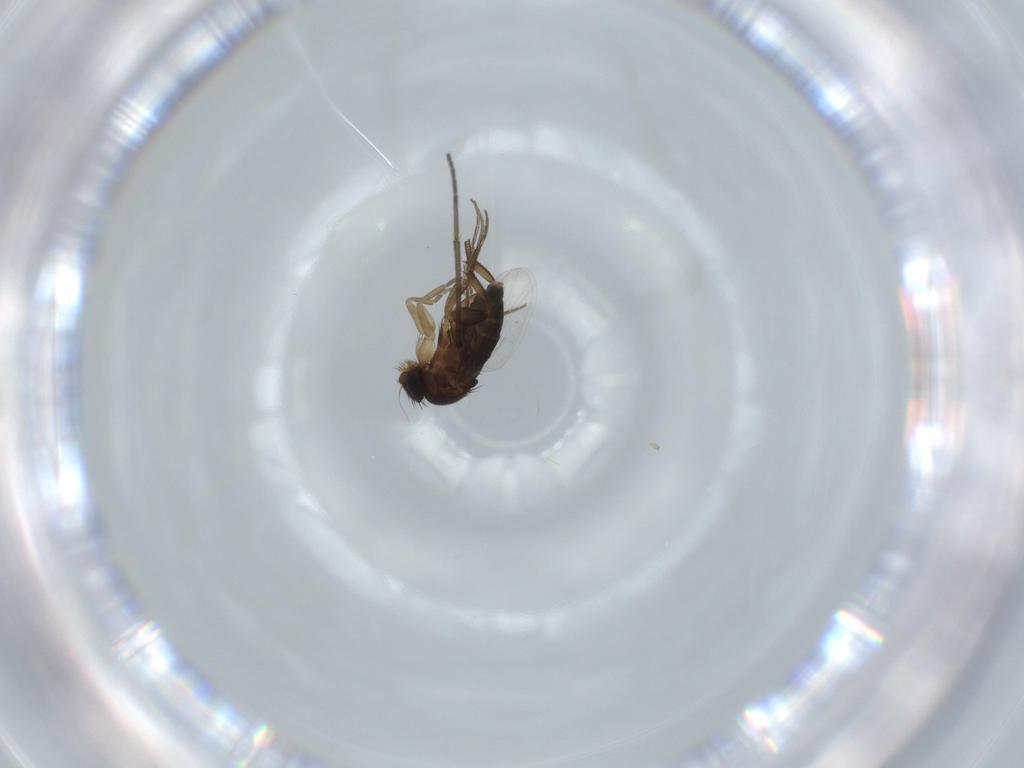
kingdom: Animalia
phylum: Arthropoda
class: Insecta
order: Diptera
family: Phoridae
